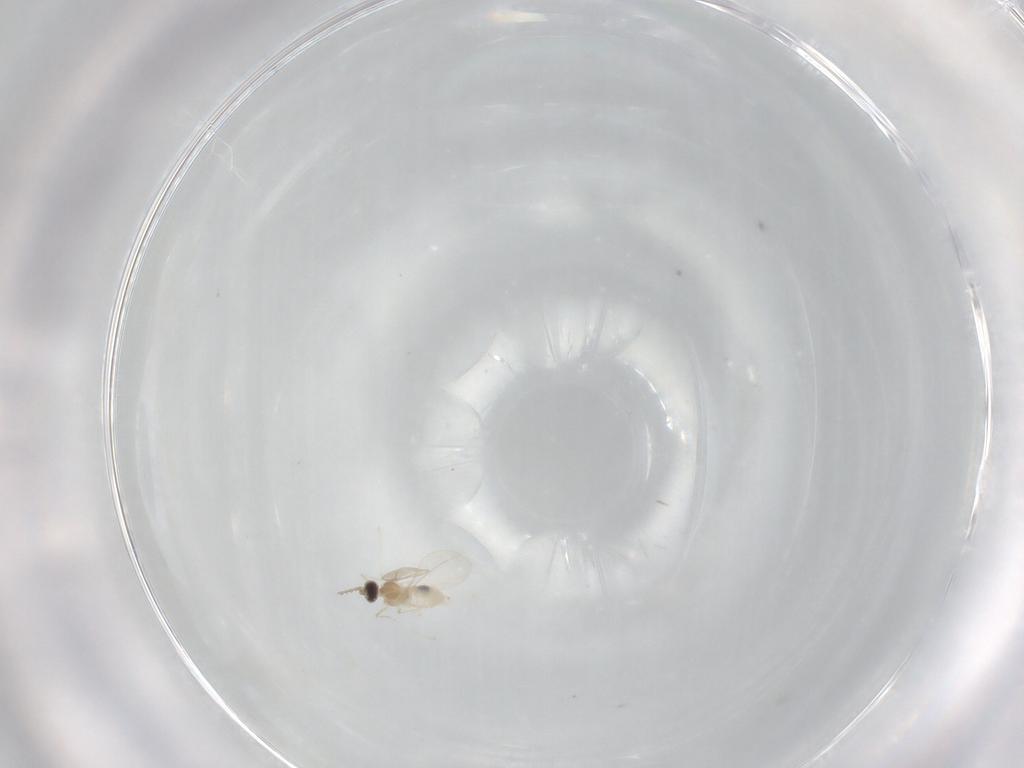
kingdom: Animalia
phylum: Arthropoda
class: Insecta
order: Diptera
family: Cecidomyiidae
